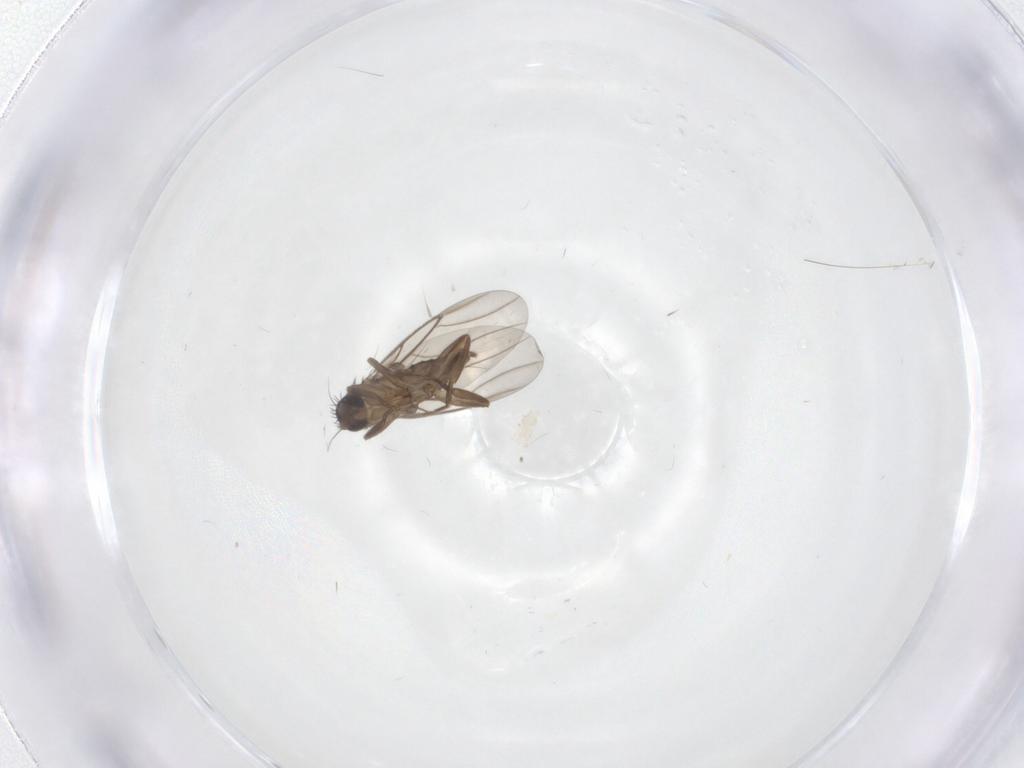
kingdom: Animalia
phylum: Arthropoda
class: Insecta
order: Diptera
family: Phoridae
